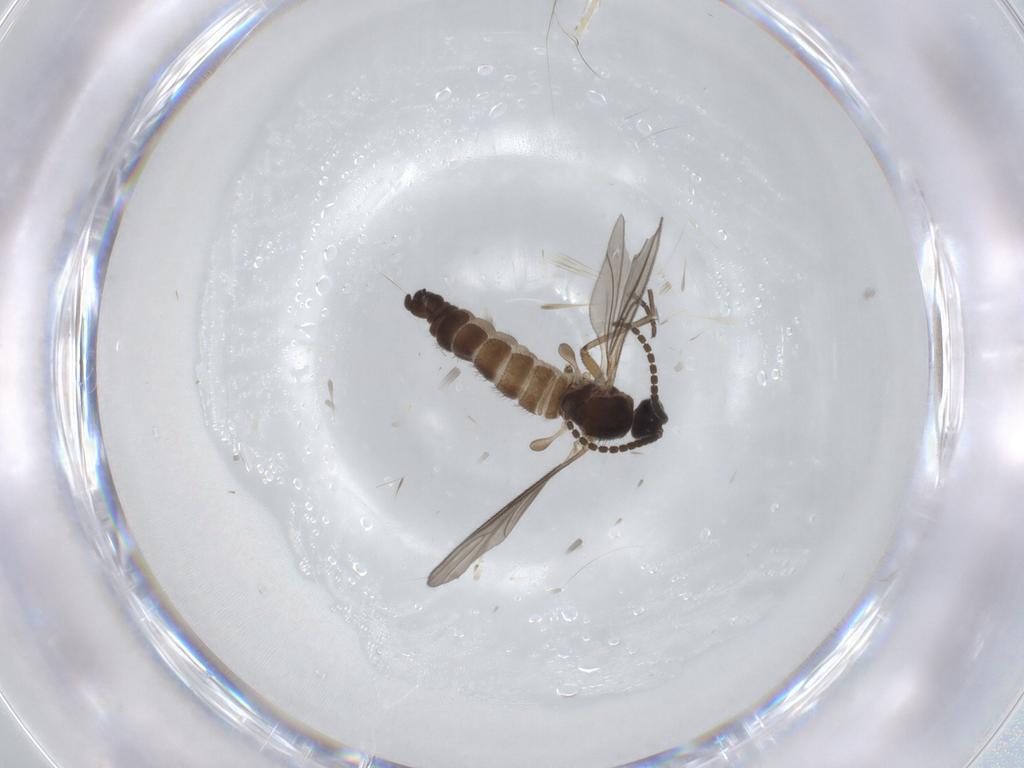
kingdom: Animalia
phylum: Arthropoda
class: Insecta
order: Diptera
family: Sciaridae
